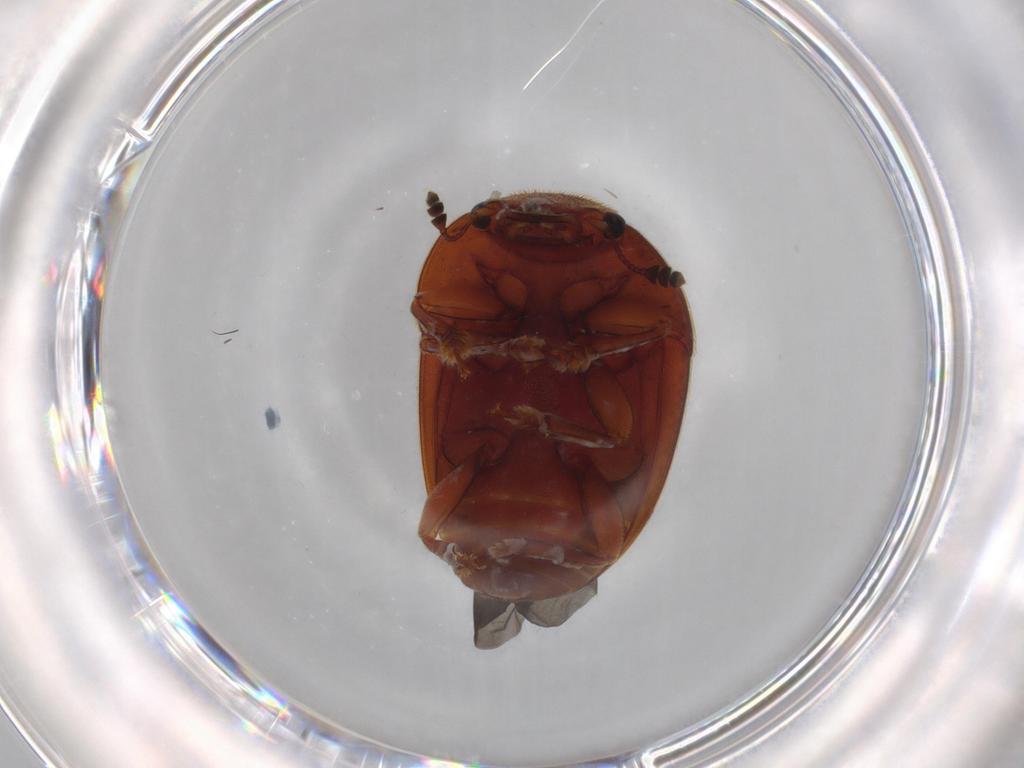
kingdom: Animalia
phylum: Arthropoda
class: Insecta
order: Coleoptera
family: Nitidulidae
